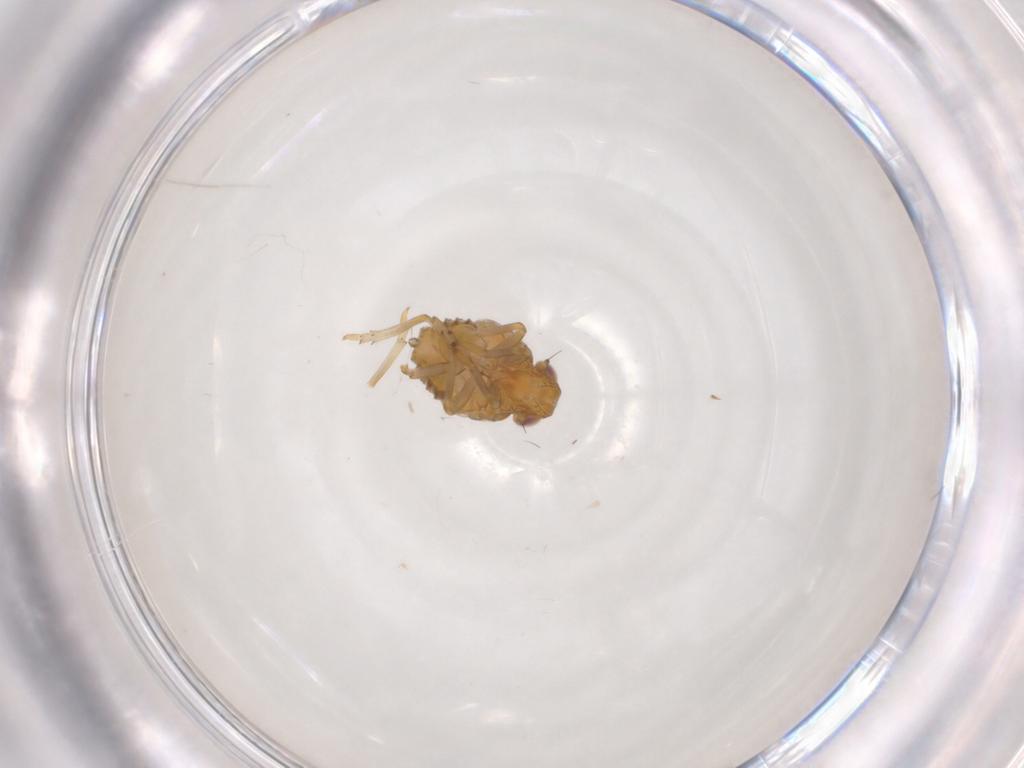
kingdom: Animalia
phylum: Arthropoda
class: Insecta
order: Hemiptera
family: Issidae
